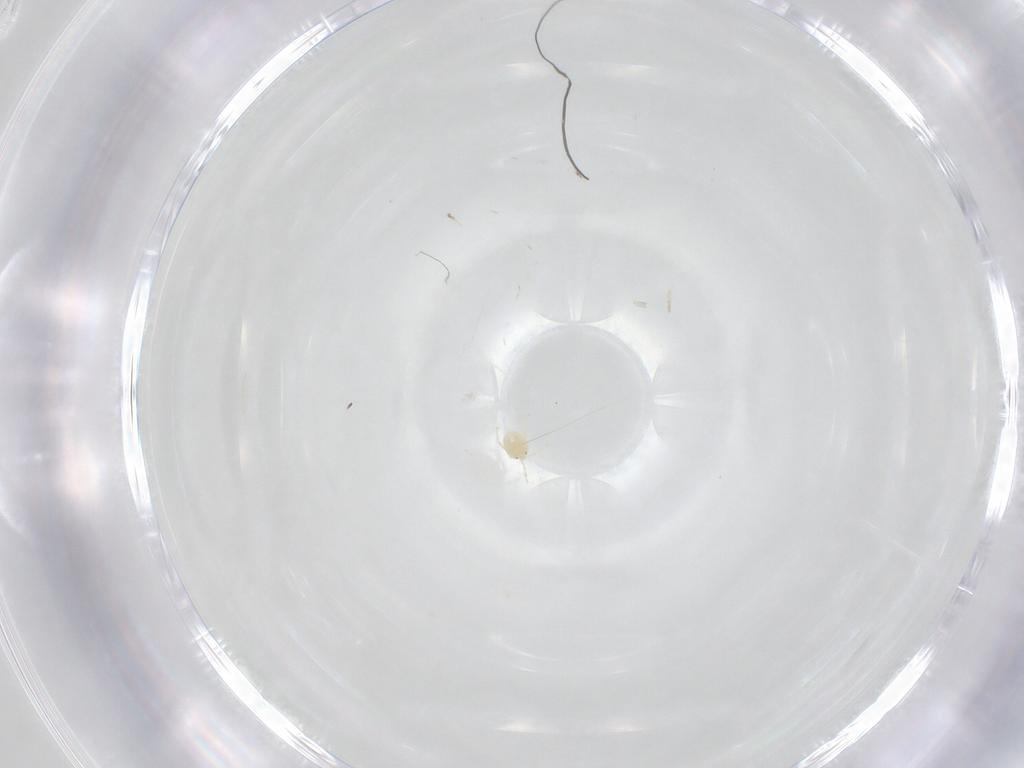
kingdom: Animalia
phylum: Arthropoda
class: Arachnida
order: Trombidiformes
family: Torrenticolidae
